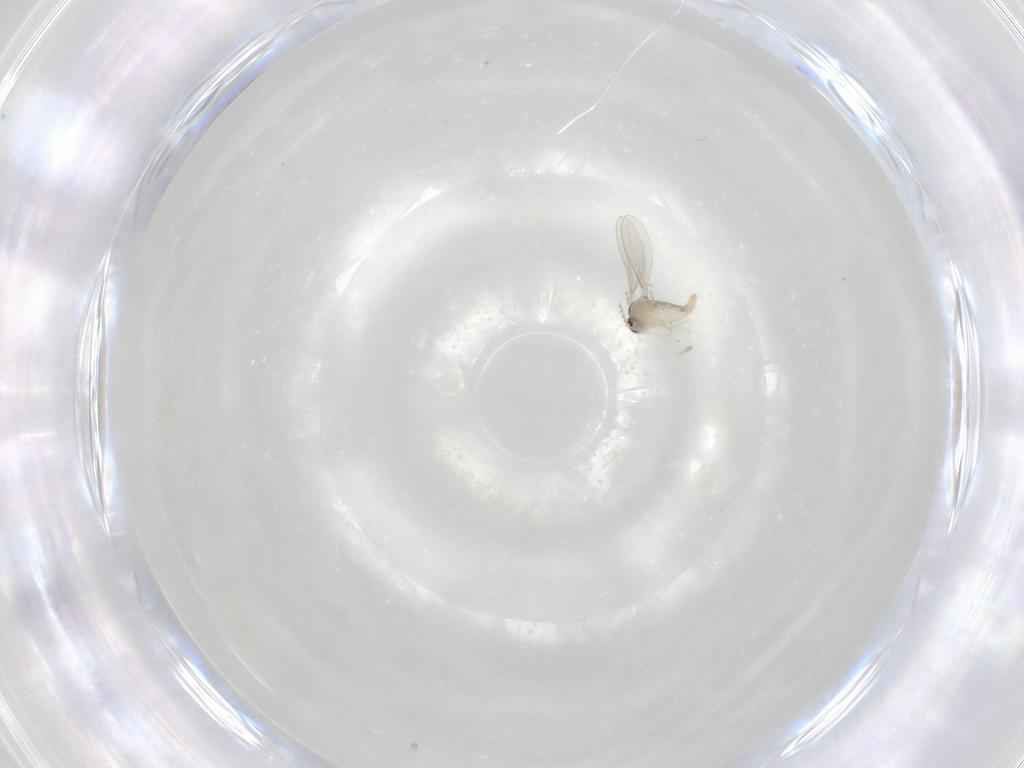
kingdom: Animalia
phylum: Arthropoda
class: Insecta
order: Diptera
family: Cecidomyiidae
